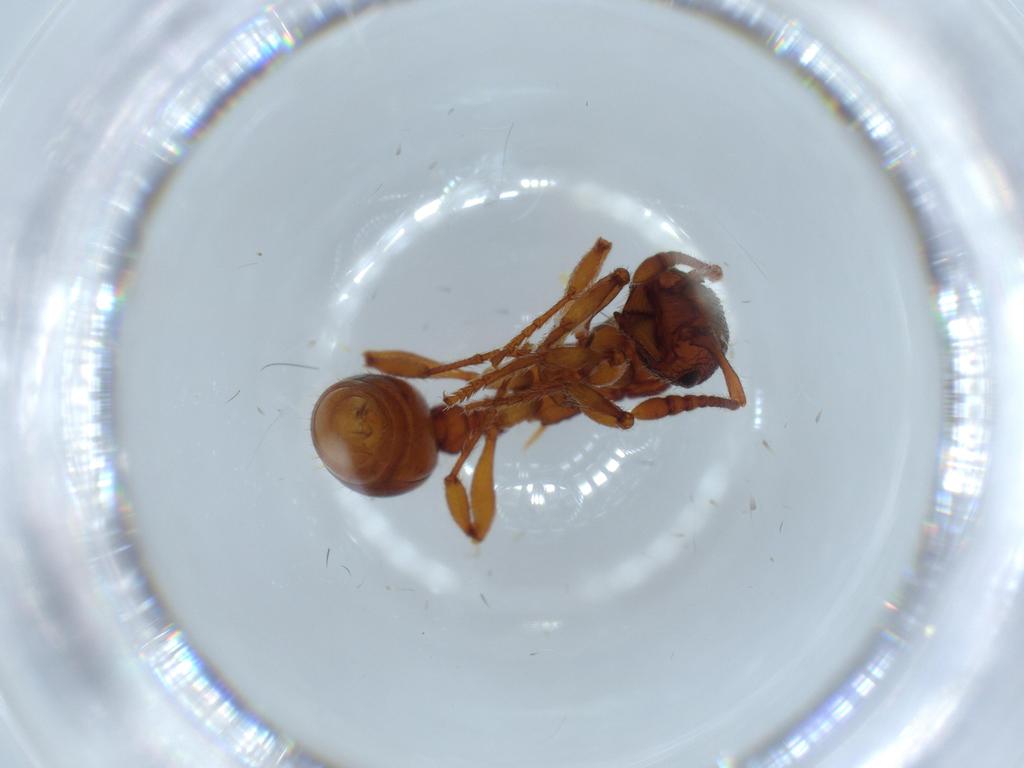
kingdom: Animalia
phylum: Arthropoda
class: Insecta
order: Hymenoptera
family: Formicidae
